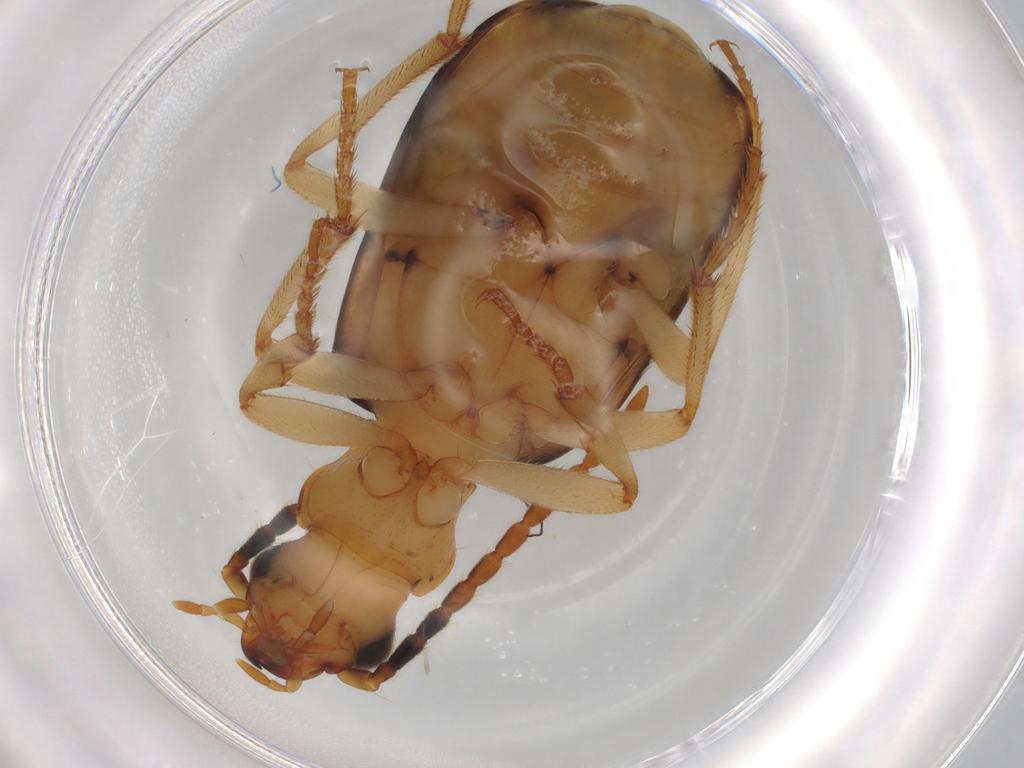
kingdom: Animalia
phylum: Arthropoda
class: Insecta
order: Coleoptera
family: Carabidae
